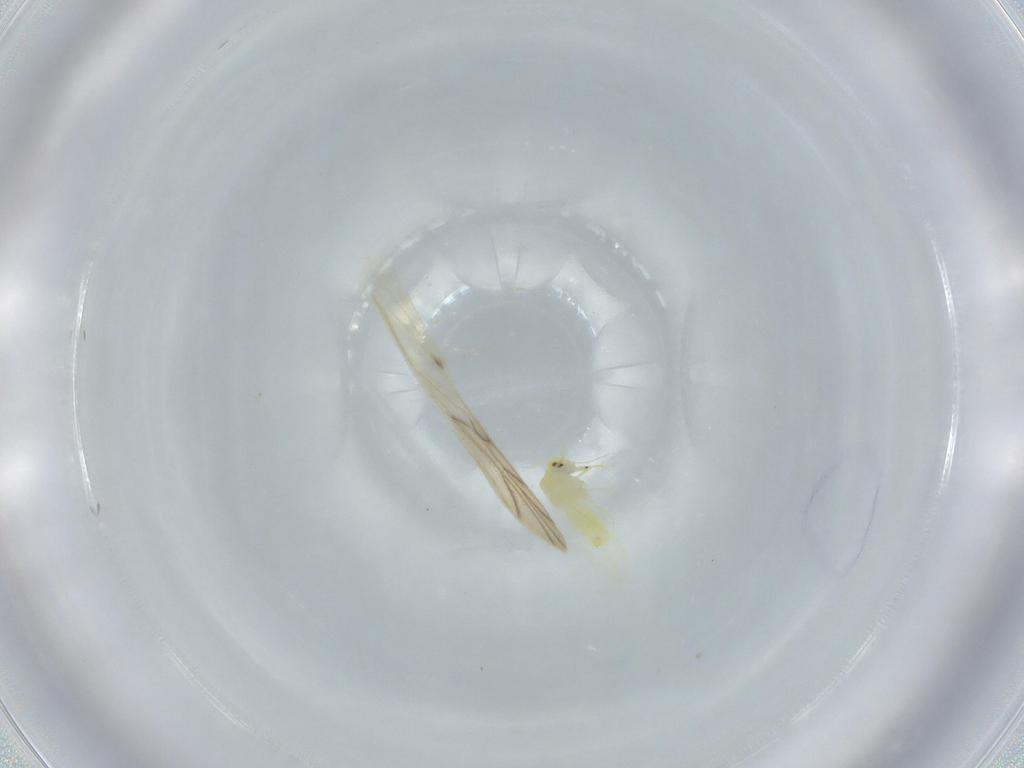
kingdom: Animalia
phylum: Arthropoda
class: Insecta
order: Hemiptera
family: Aleyrodidae
